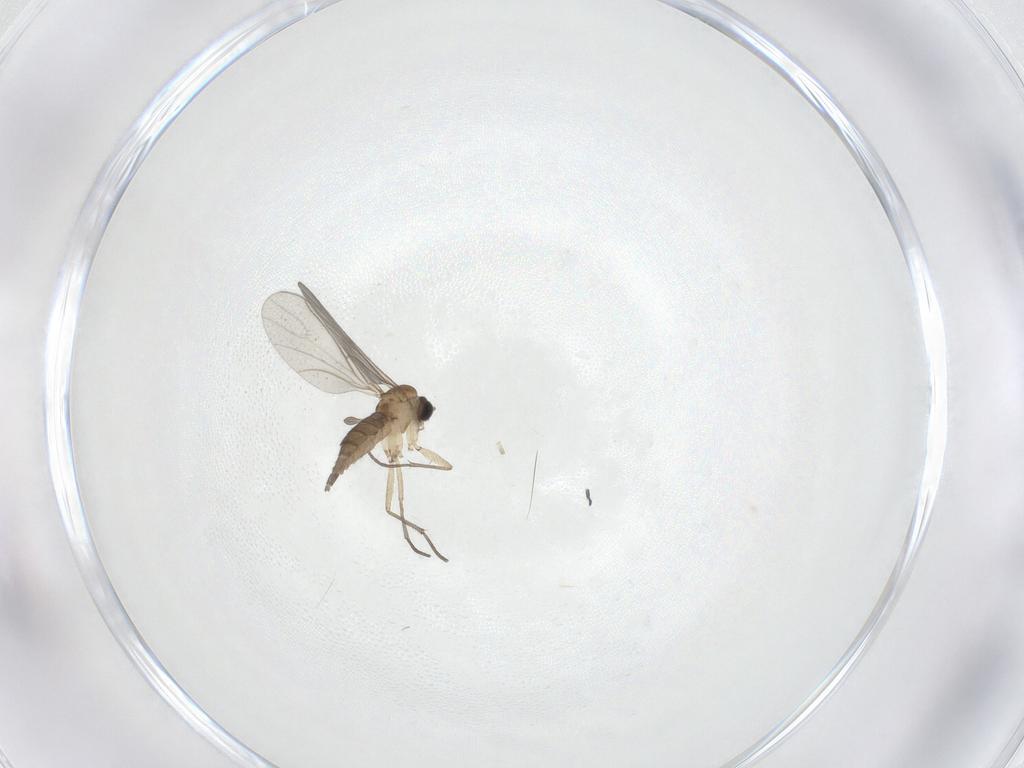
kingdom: Animalia
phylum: Arthropoda
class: Insecta
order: Diptera
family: Sciaridae
